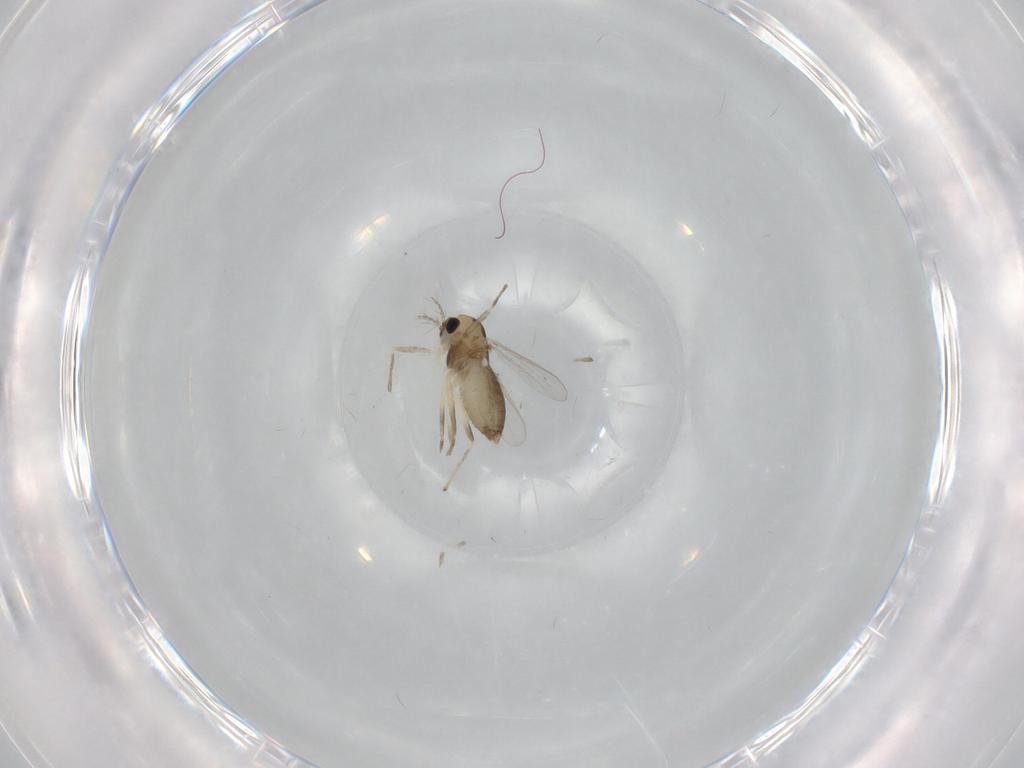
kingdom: Animalia
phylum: Arthropoda
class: Insecta
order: Diptera
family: Chironomidae
